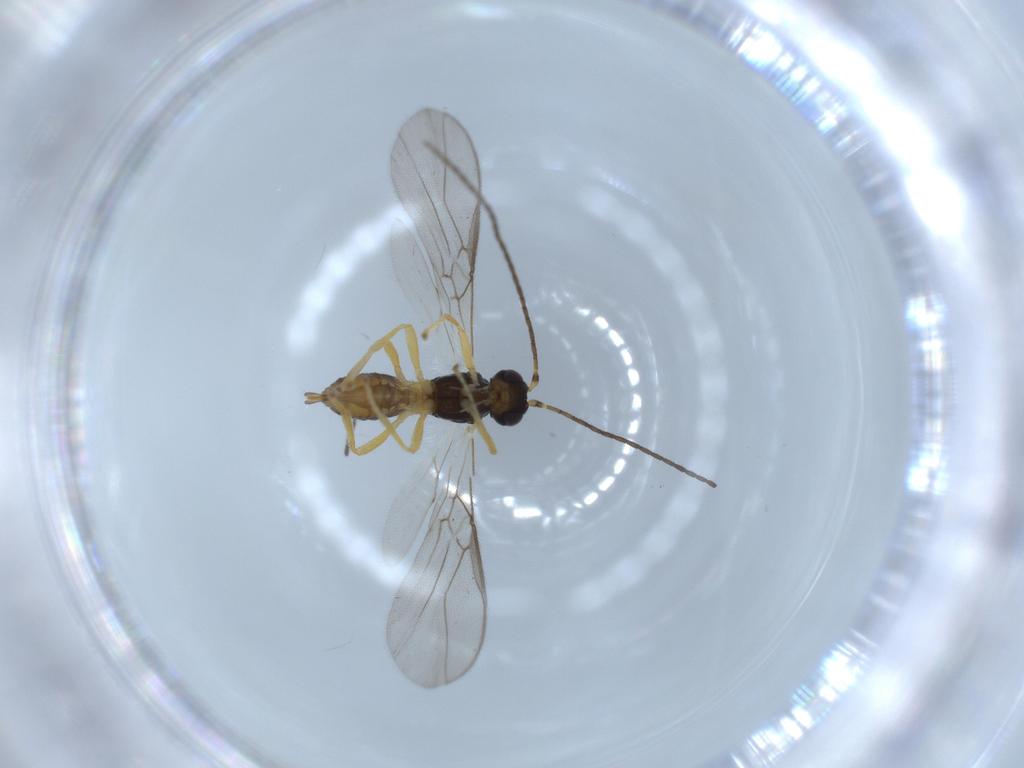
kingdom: Animalia
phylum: Arthropoda
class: Insecta
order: Hymenoptera
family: Braconidae
